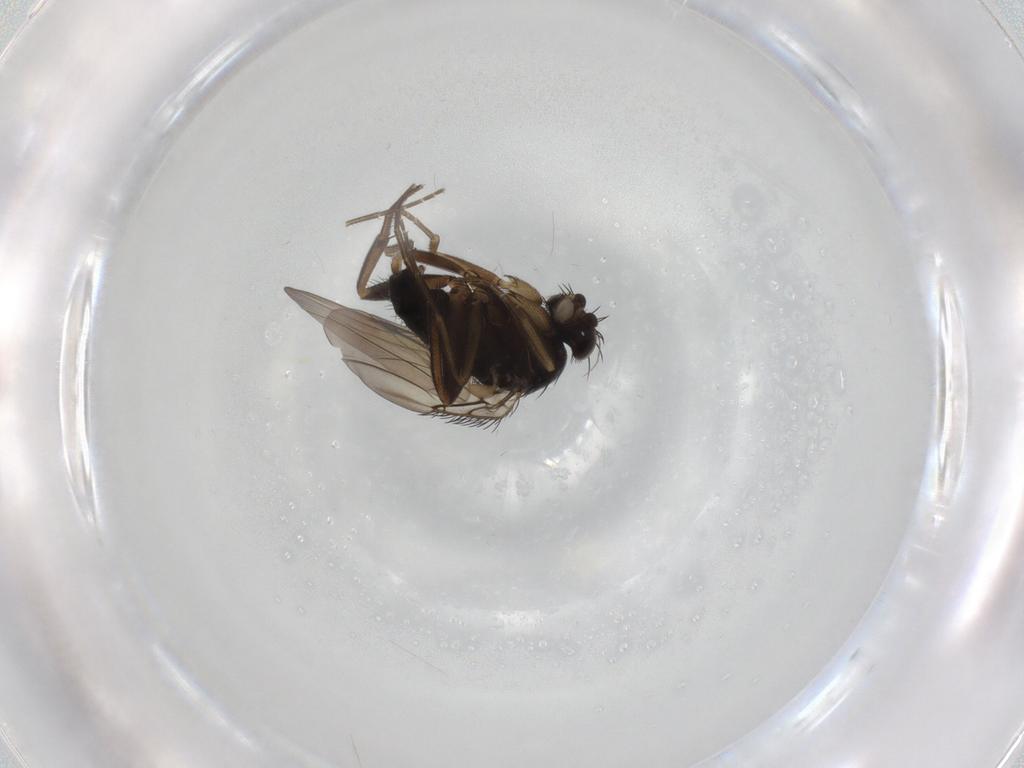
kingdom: Animalia
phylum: Arthropoda
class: Insecta
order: Diptera
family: Phoridae
